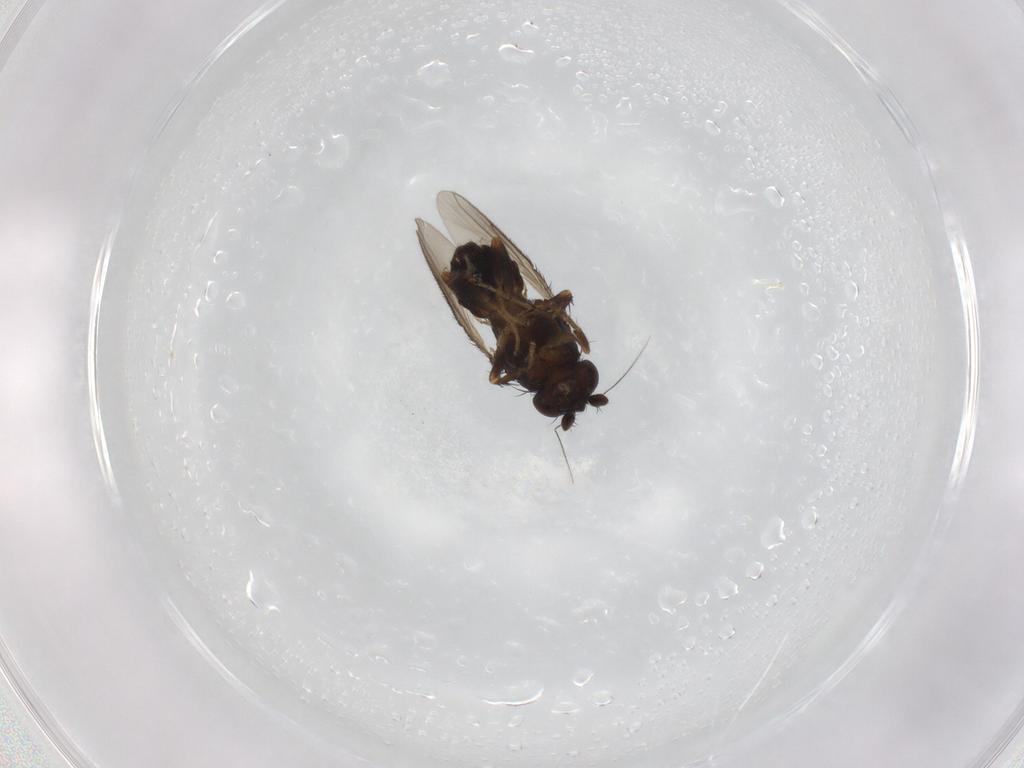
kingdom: Animalia
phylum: Arthropoda
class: Insecta
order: Diptera
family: Sphaeroceridae
